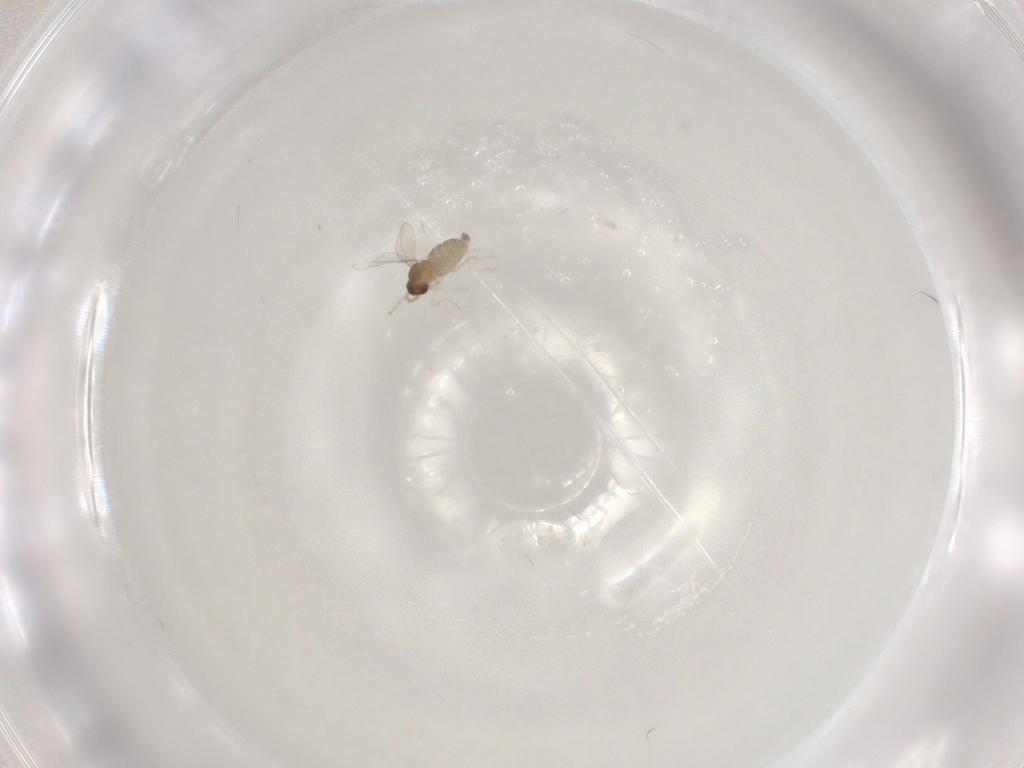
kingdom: Animalia
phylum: Arthropoda
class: Insecta
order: Diptera
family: Cecidomyiidae
